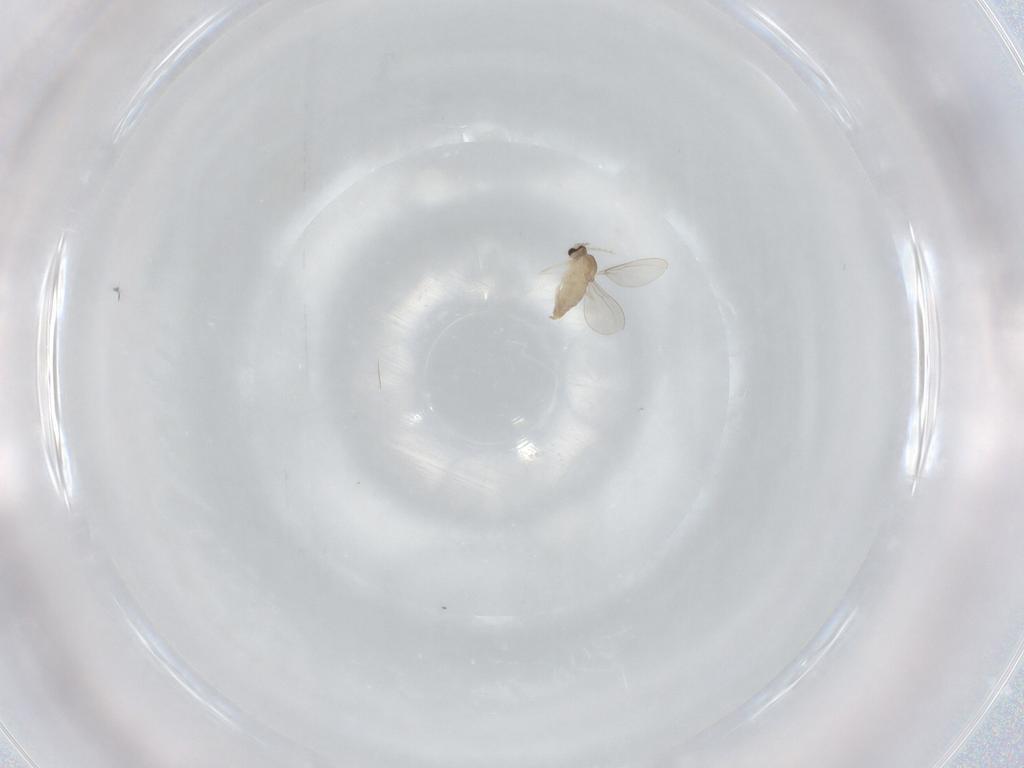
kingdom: Animalia
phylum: Arthropoda
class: Insecta
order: Diptera
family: Cecidomyiidae
